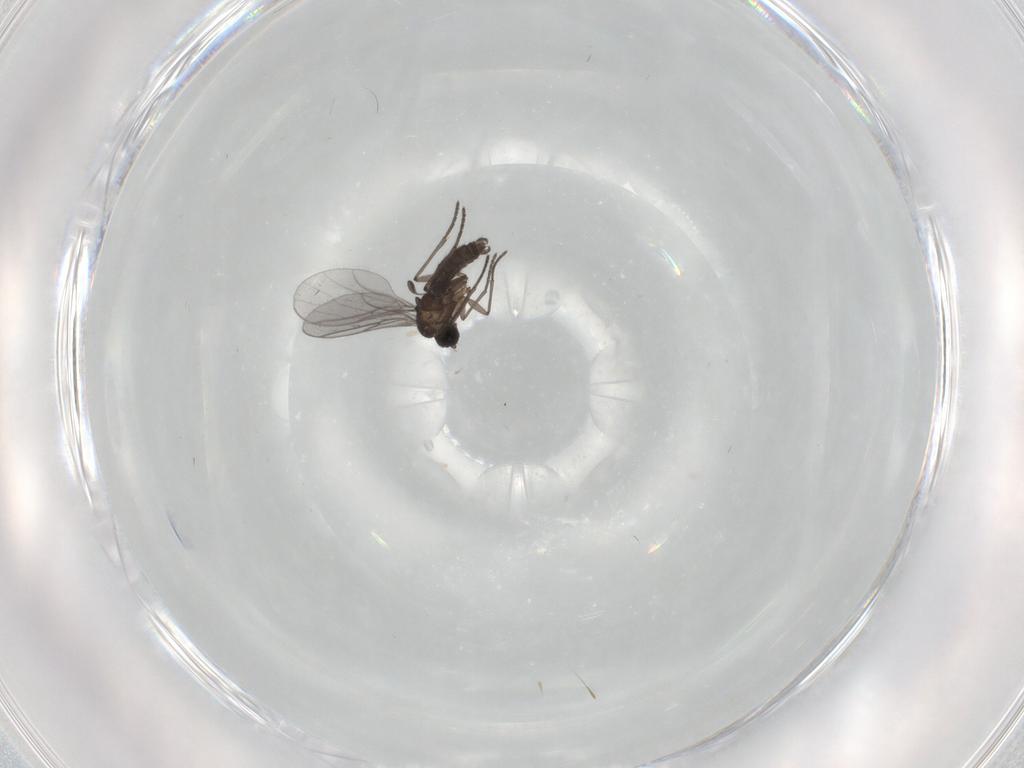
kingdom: Animalia
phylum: Arthropoda
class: Insecta
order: Diptera
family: Sciaridae
